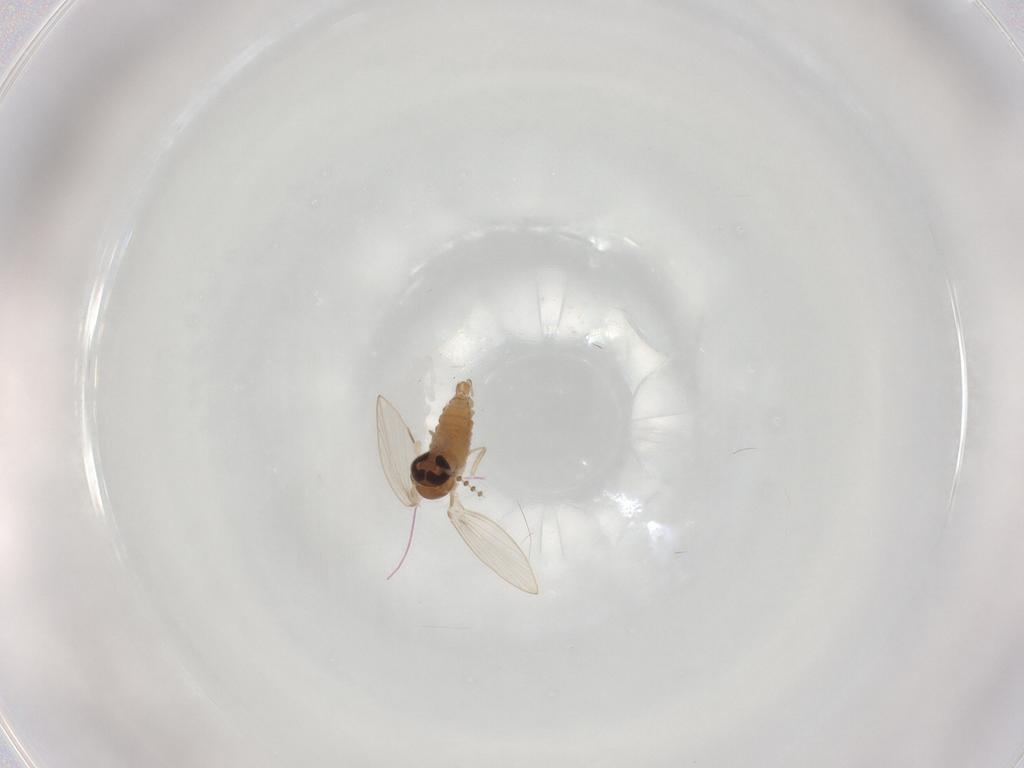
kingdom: Animalia
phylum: Arthropoda
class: Insecta
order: Diptera
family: Psychodidae
